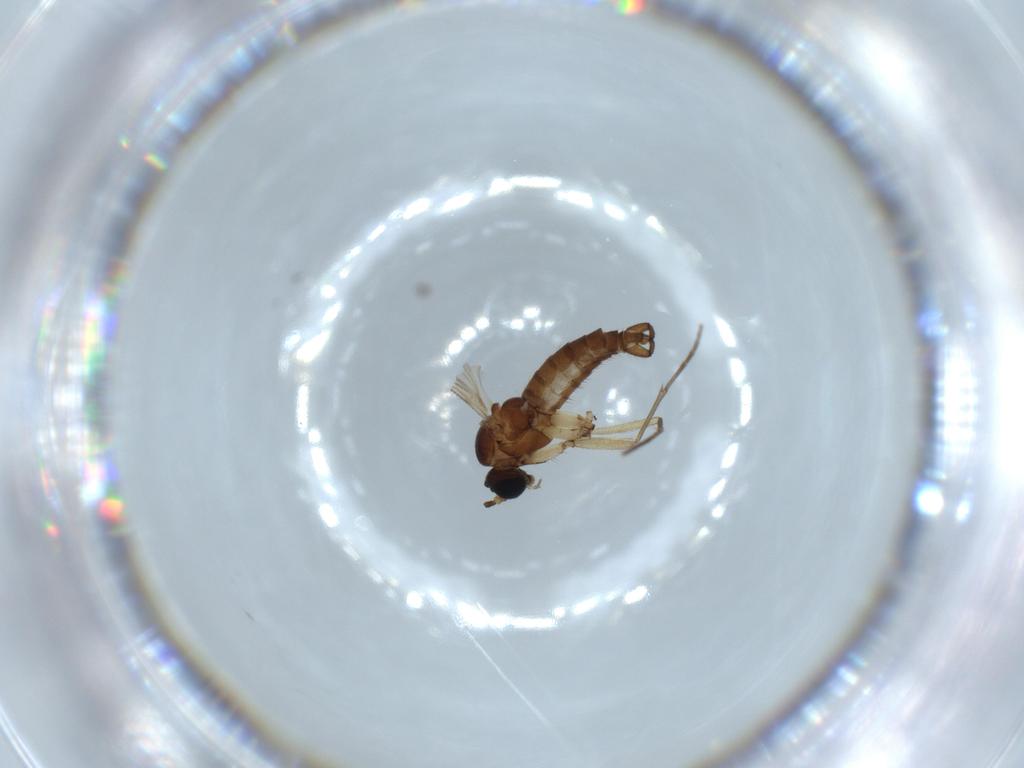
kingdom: Animalia
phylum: Arthropoda
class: Insecta
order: Diptera
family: Sciaridae
